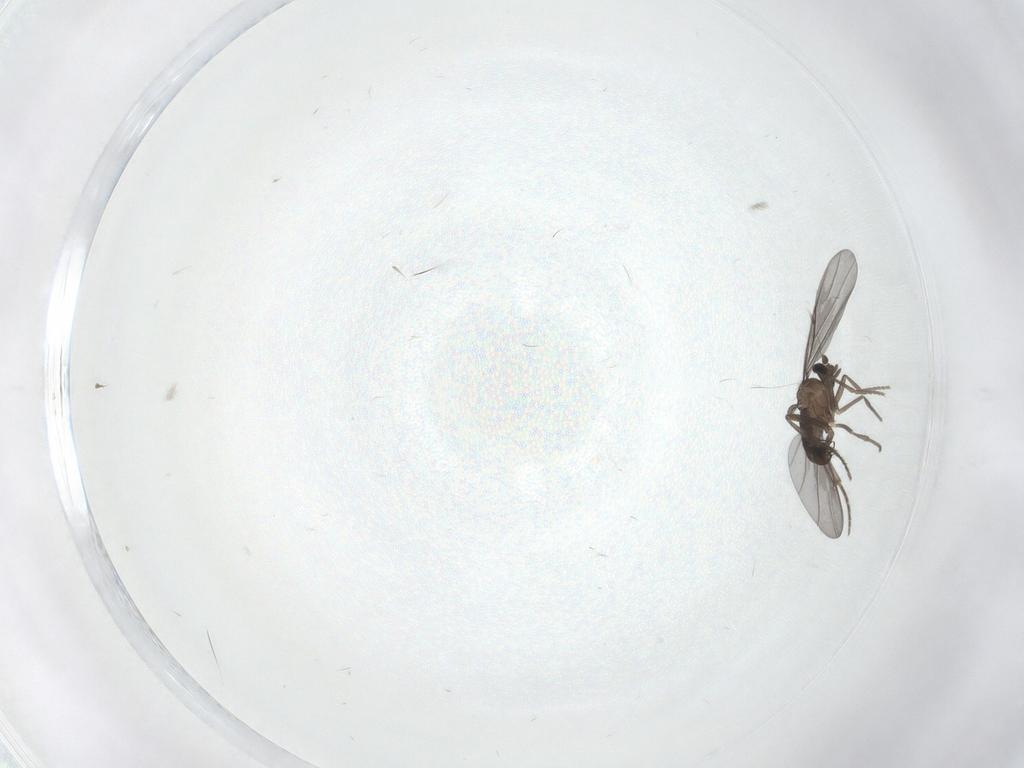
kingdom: Animalia
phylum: Arthropoda
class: Insecta
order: Diptera
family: Phoridae
